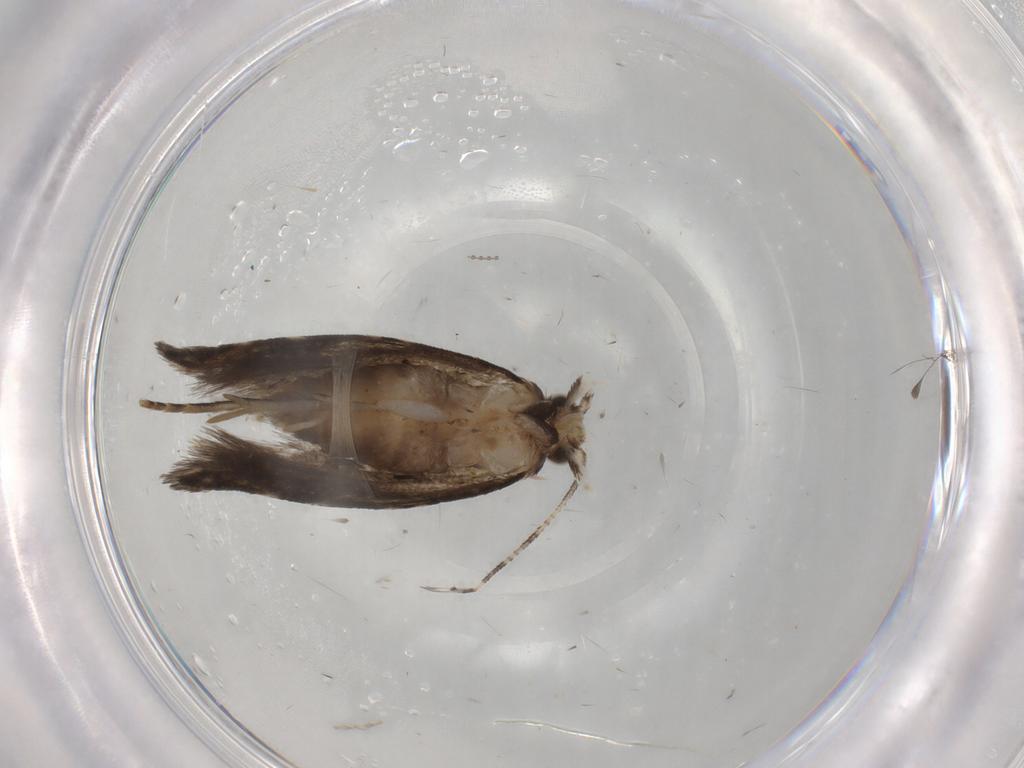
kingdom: Animalia
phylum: Arthropoda
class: Insecta
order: Lepidoptera
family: Tineidae
